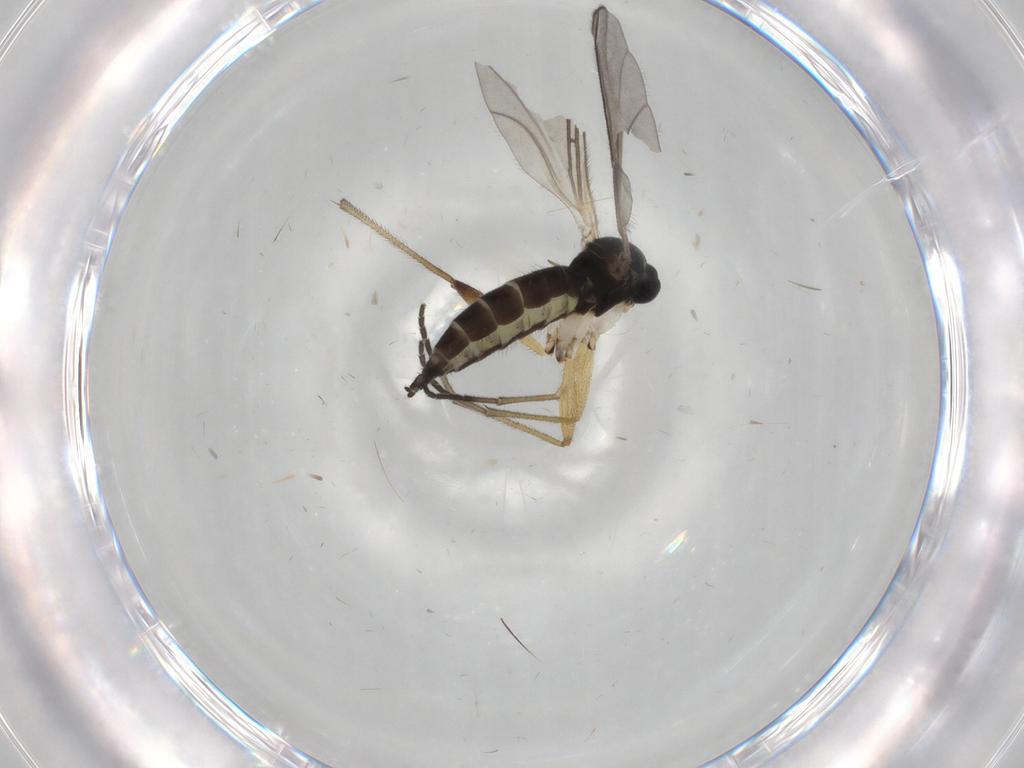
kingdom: Animalia
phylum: Arthropoda
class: Insecta
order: Diptera
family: Sciaridae
